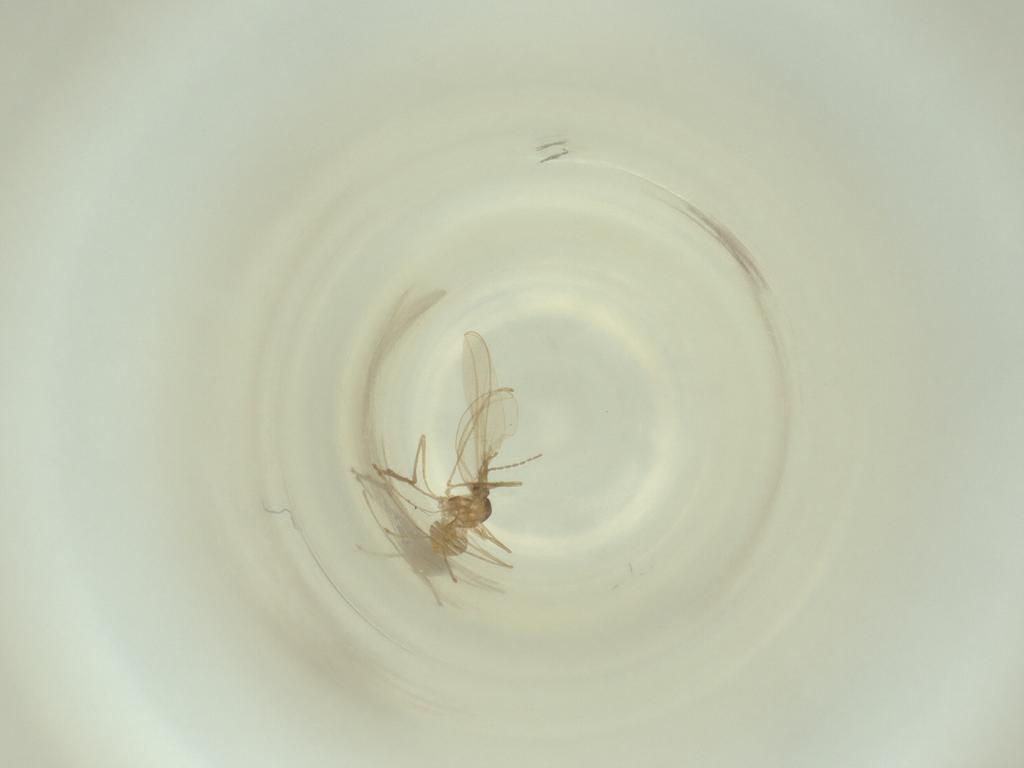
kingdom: Animalia
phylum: Arthropoda
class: Insecta
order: Diptera
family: Cecidomyiidae
